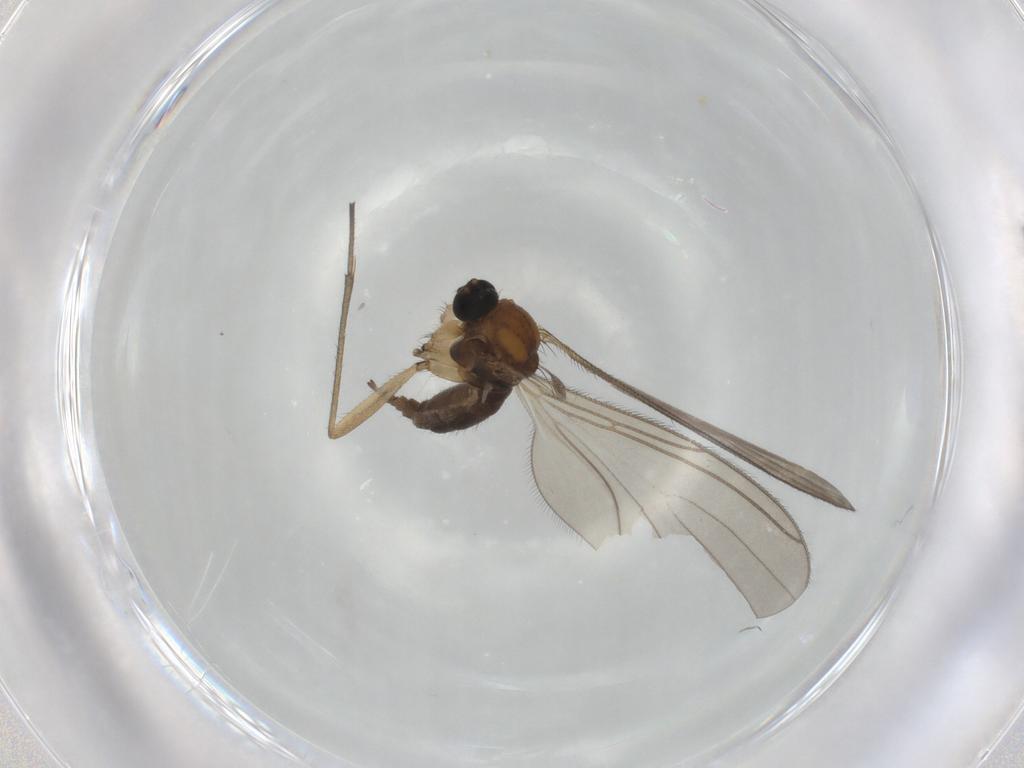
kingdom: Animalia
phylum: Arthropoda
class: Insecta
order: Diptera
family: Sciaridae
